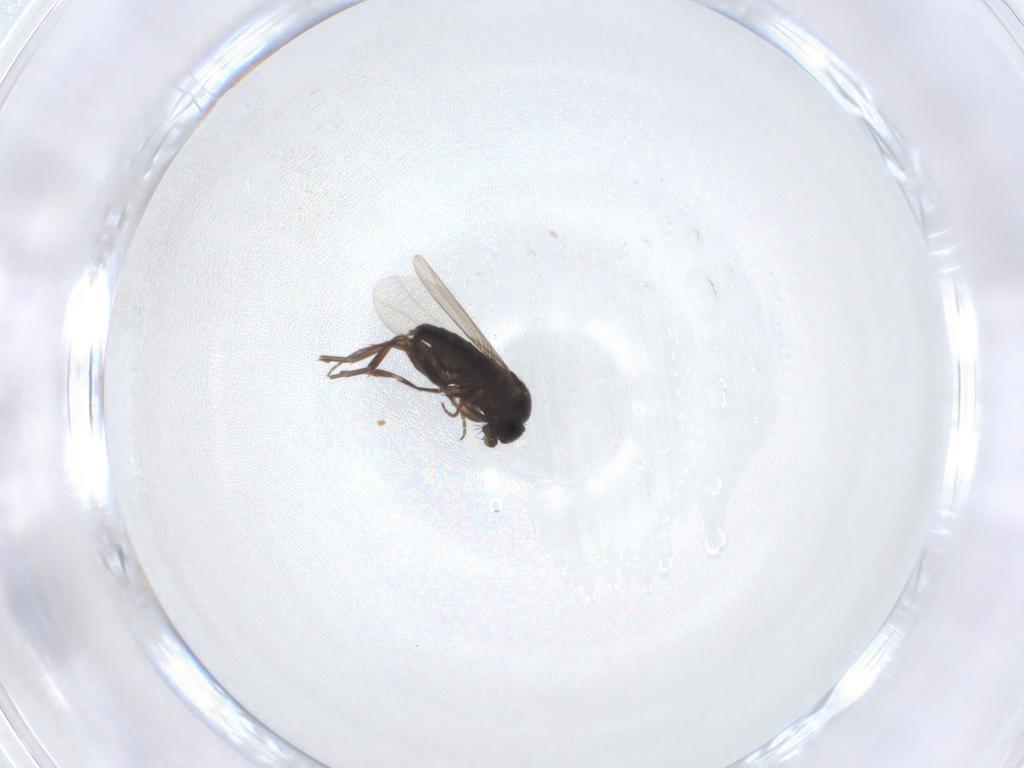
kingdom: Animalia
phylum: Arthropoda
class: Insecta
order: Diptera
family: Phoridae
